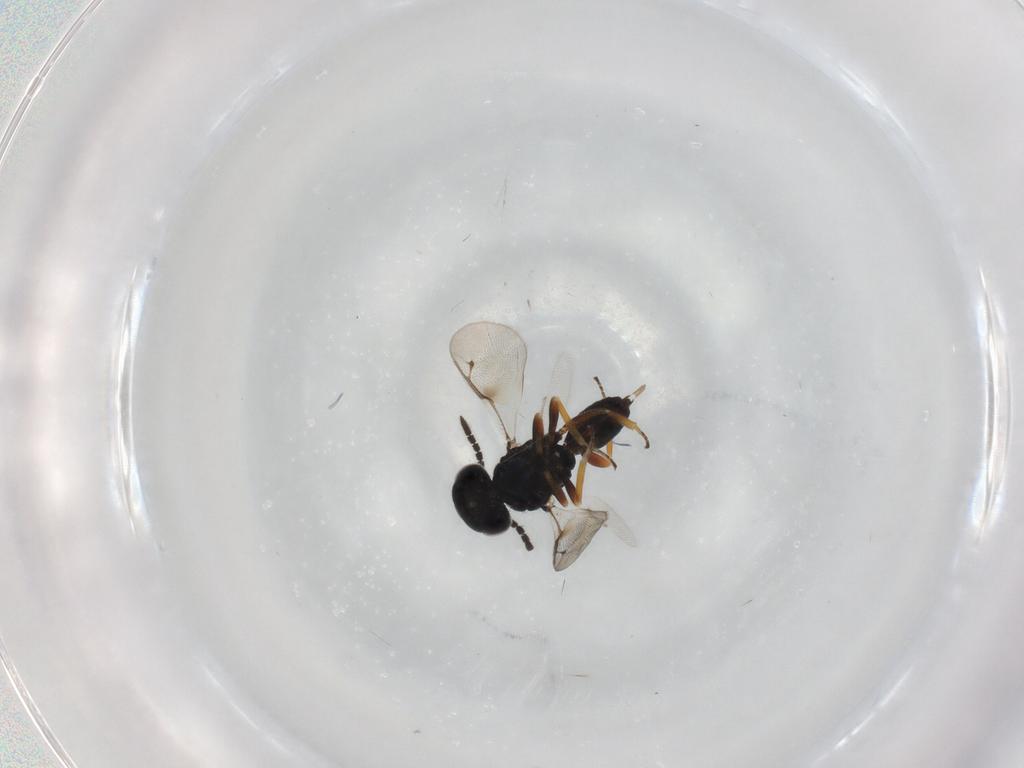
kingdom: Animalia
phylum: Arthropoda
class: Insecta
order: Hymenoptera
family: Pteromalidae
